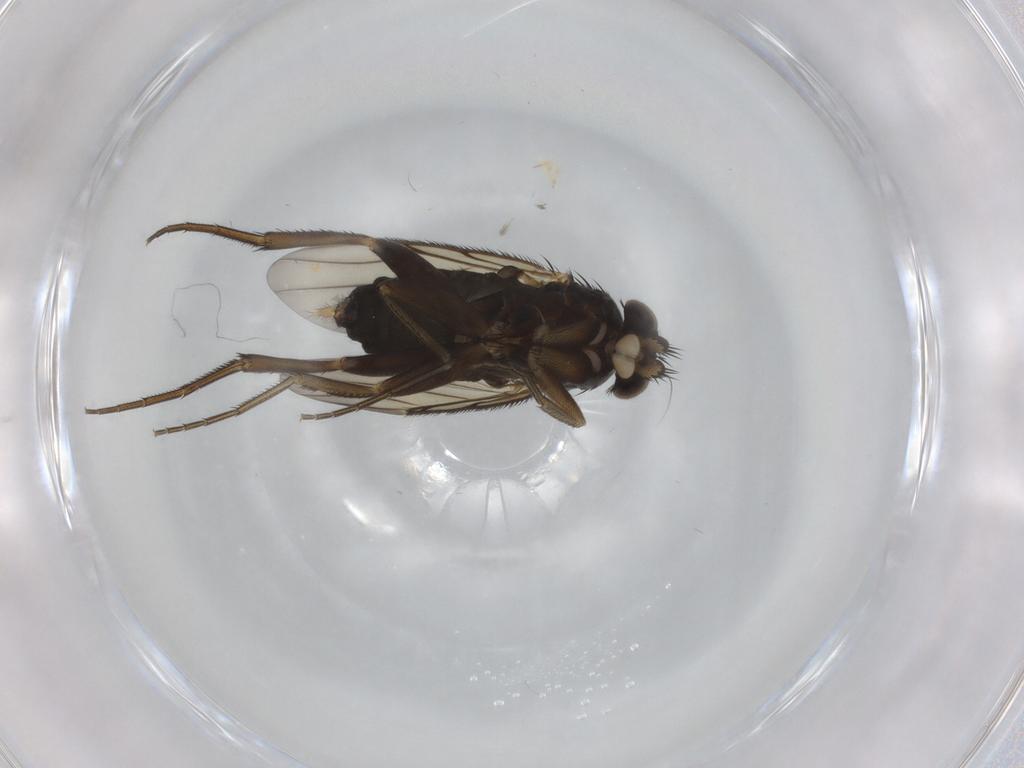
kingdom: Animalia
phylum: Arthropoda
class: Insecta
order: Diptera
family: Phoridae
